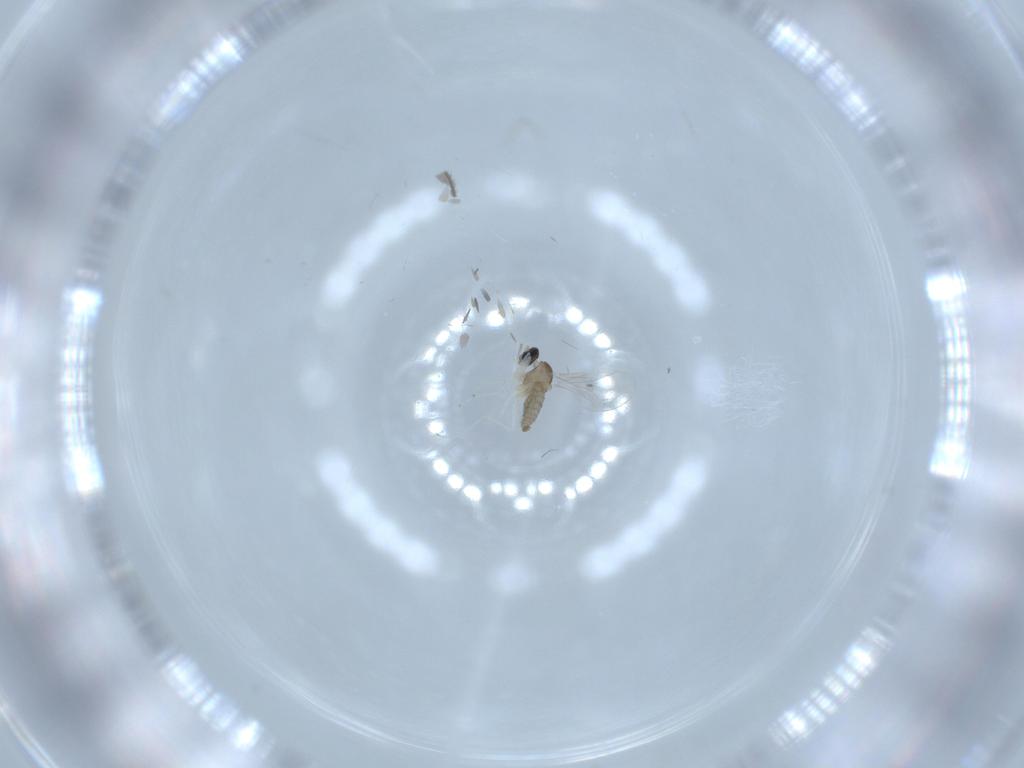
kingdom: Animalia
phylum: Arthropoda
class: Insecta
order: Diptera
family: Sciaridae
